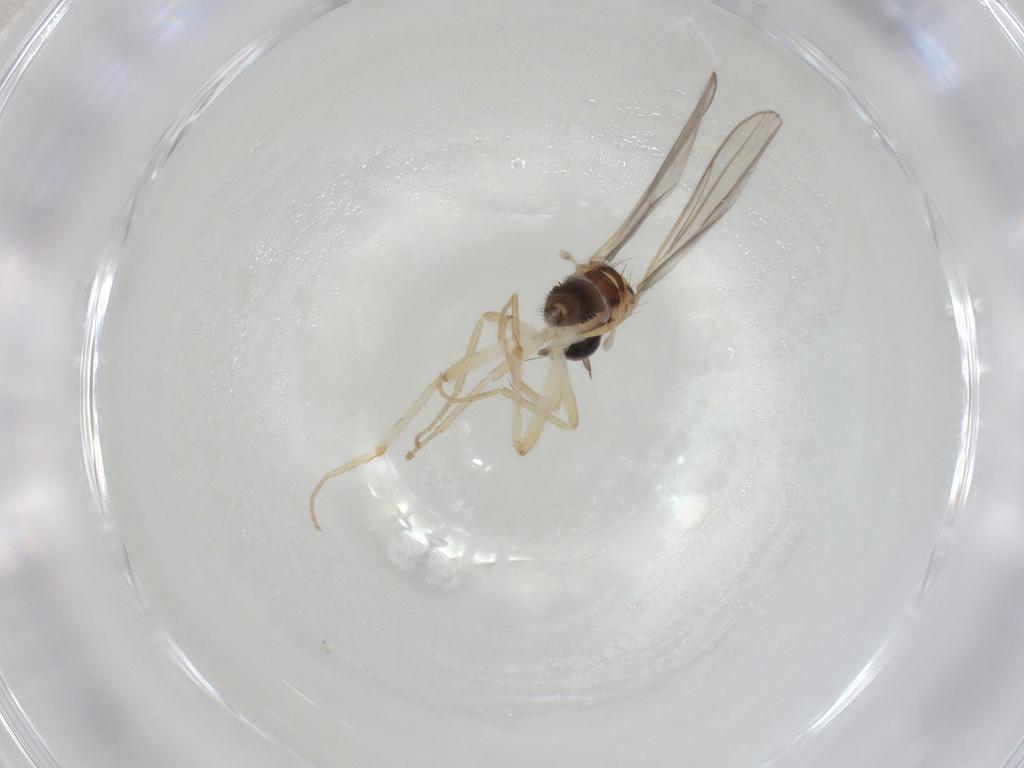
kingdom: Animalia
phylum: Arthropoda
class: Insecta
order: Diptera
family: Hybotidae
